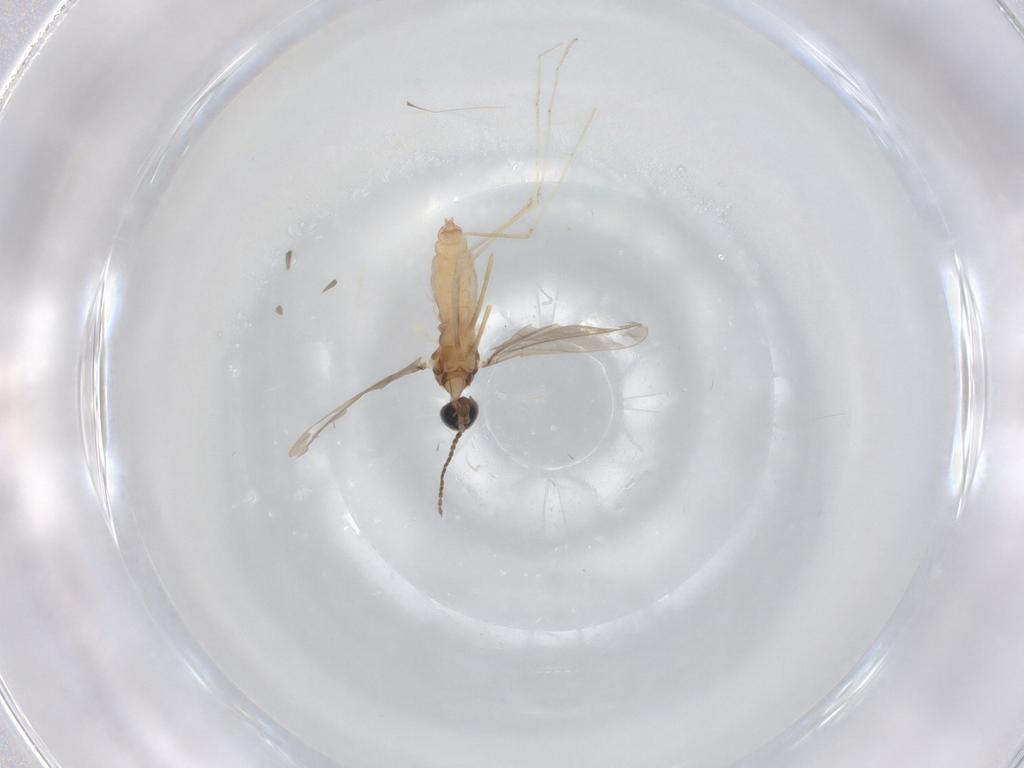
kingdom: Animalia
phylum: Arthropoda
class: Insecta
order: Diptera
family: Cecidomyiidae
